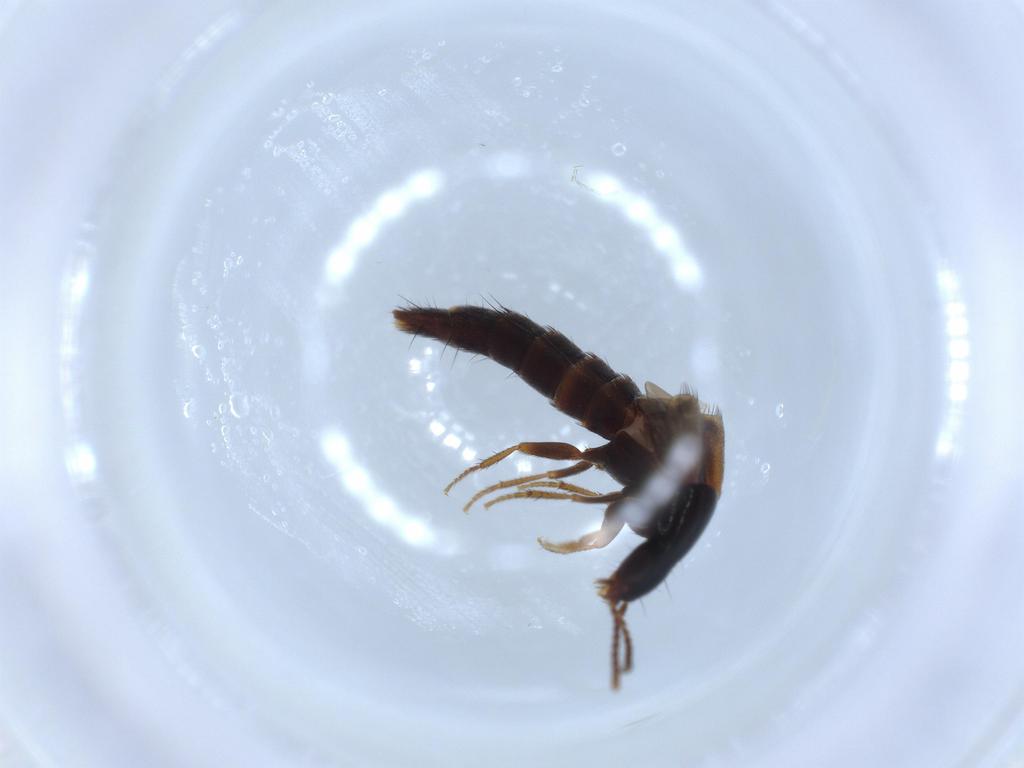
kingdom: Animalia
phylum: Arthropoda
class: Insecta
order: Coleoptera
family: Staphylinidae
